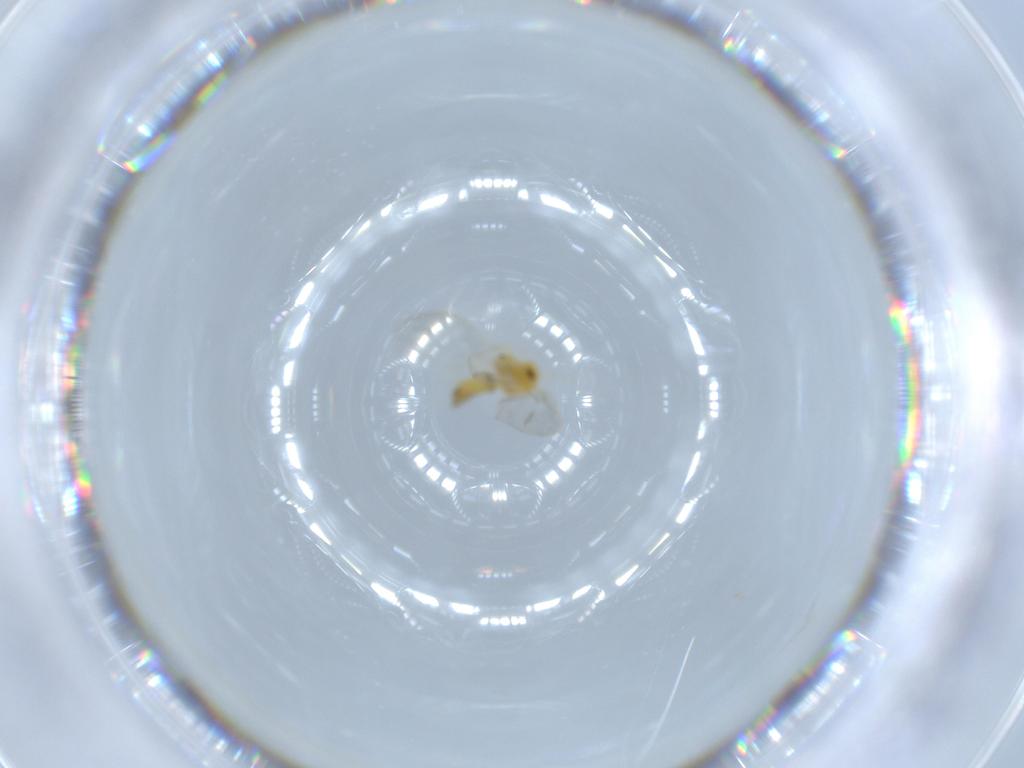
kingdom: Animalia
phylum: Arthropoda
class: Insecta
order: Hemiptera
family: Aleyrodidae
